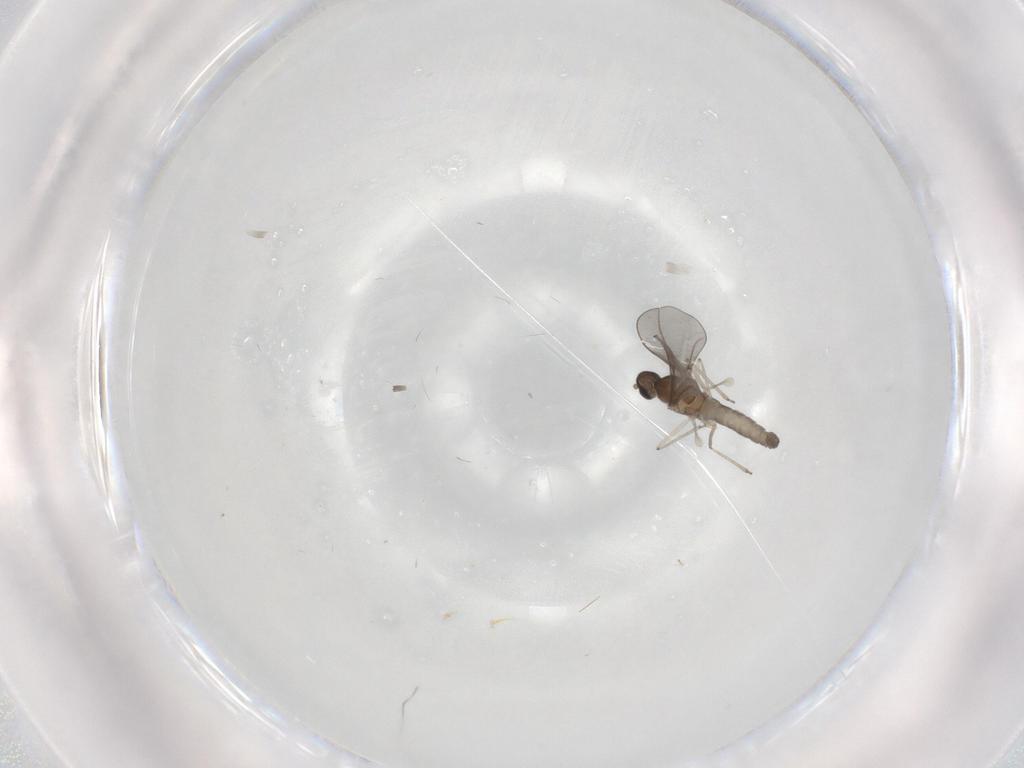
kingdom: Animalia
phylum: Arthropoda
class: Insecta
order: Diptera
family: Cecidomyiidae
